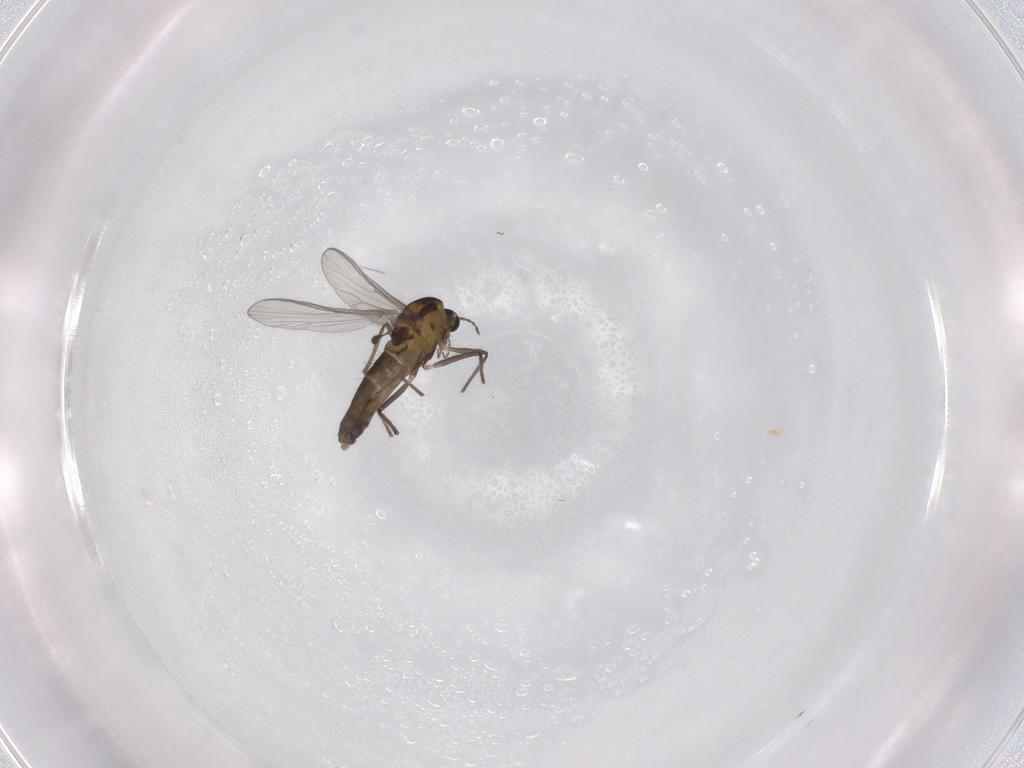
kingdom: Animalia
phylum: Arthropoda
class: Insecta
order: Diptera
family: Chironomidae
